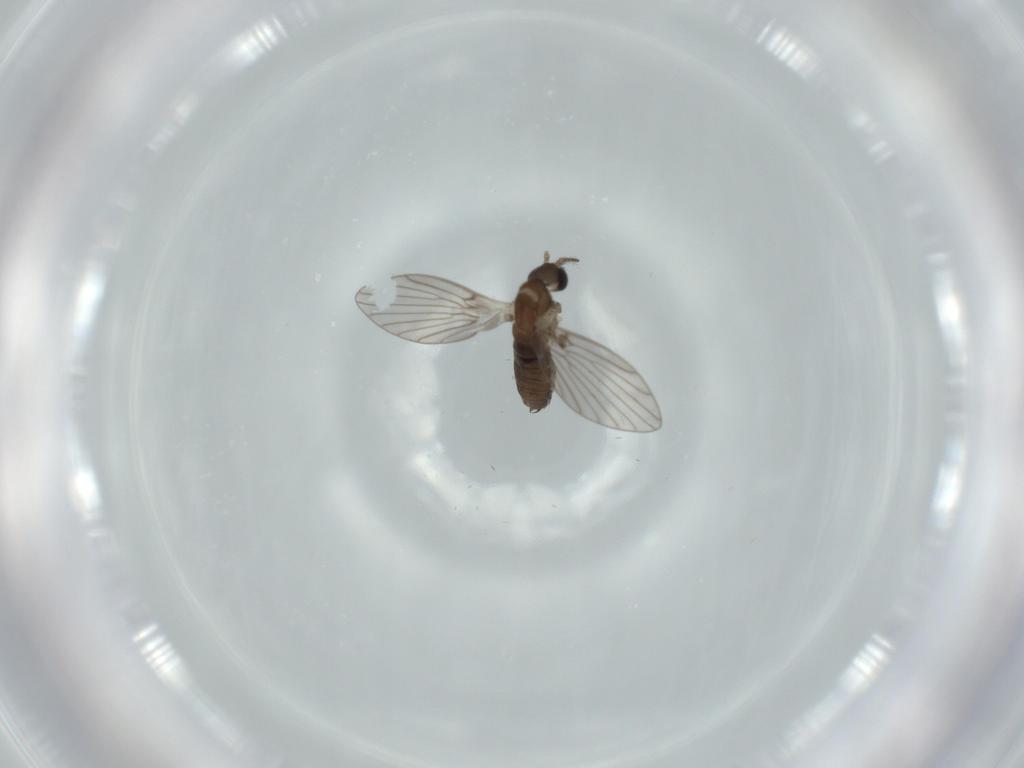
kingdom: Animalia
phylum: Arthropoda
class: Insecta
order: Diptera
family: Psychodidae
